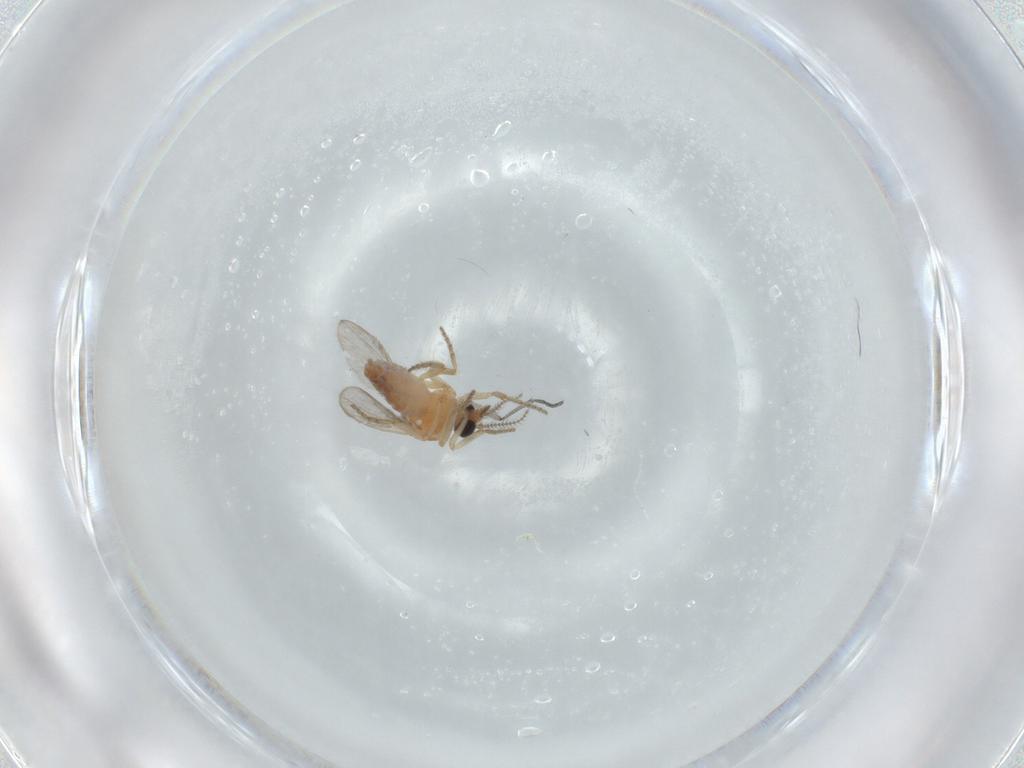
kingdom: Animalia
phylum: Arthropoda
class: Insecta
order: Diptera
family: Ceratopogonidae
